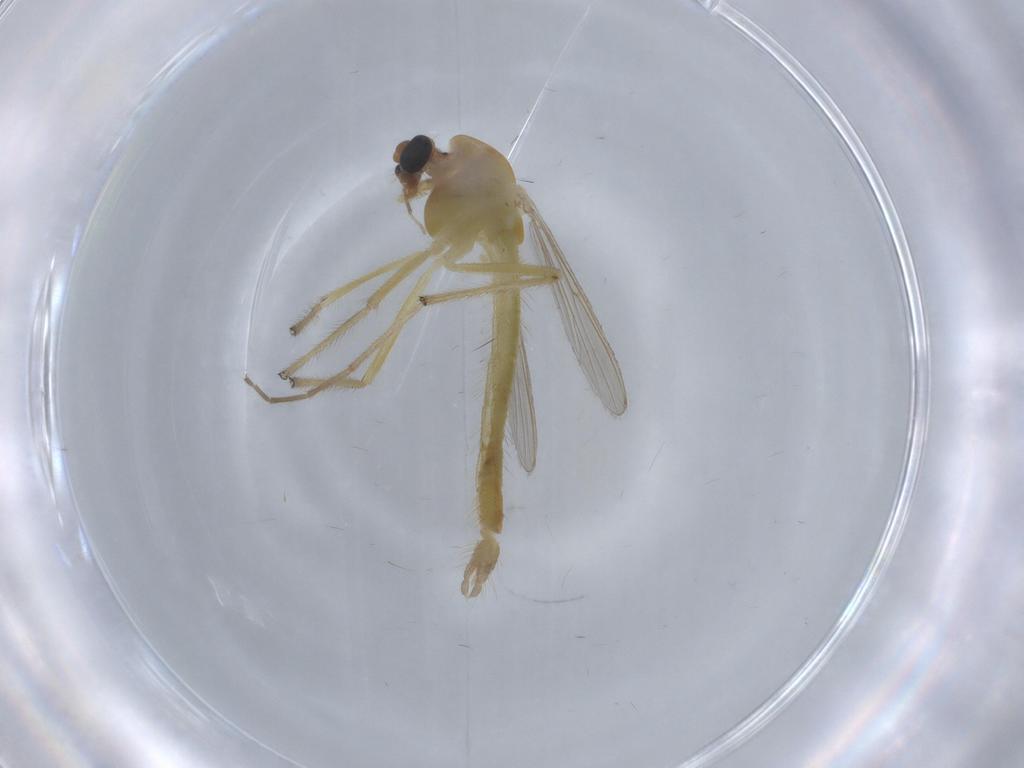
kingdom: Animalia
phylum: Arthropoda
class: Insecta
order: Diptera
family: Chironomidae
